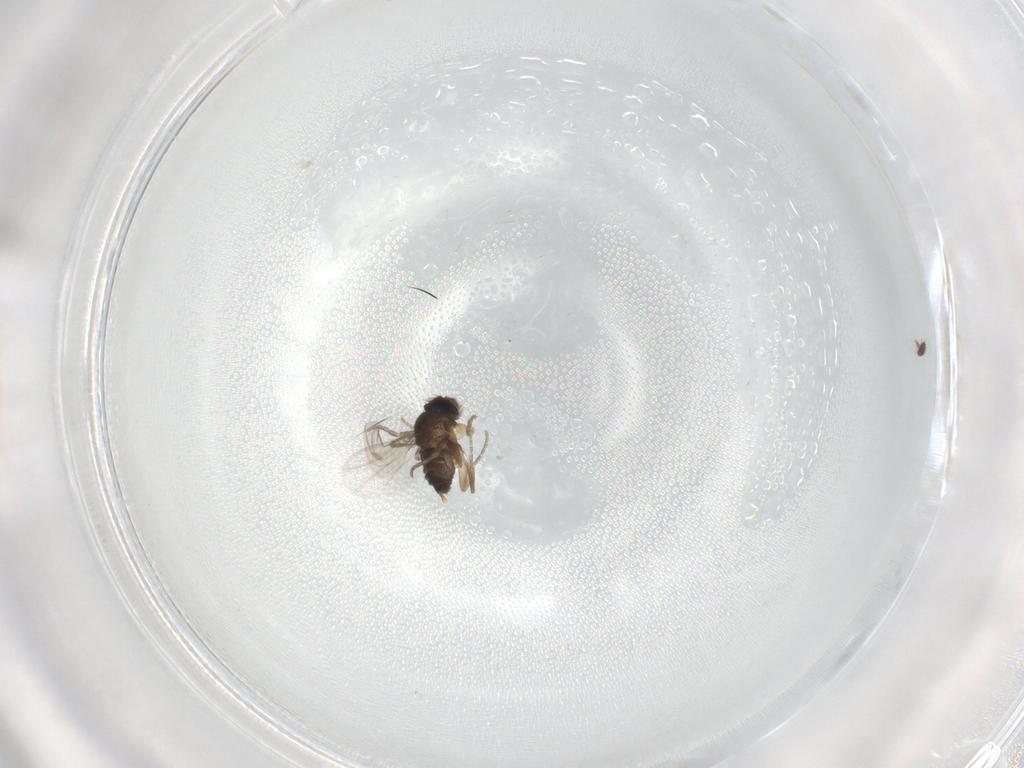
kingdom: Animalia
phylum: Arthropoda
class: Insecta
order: Diptera
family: Phoridae
